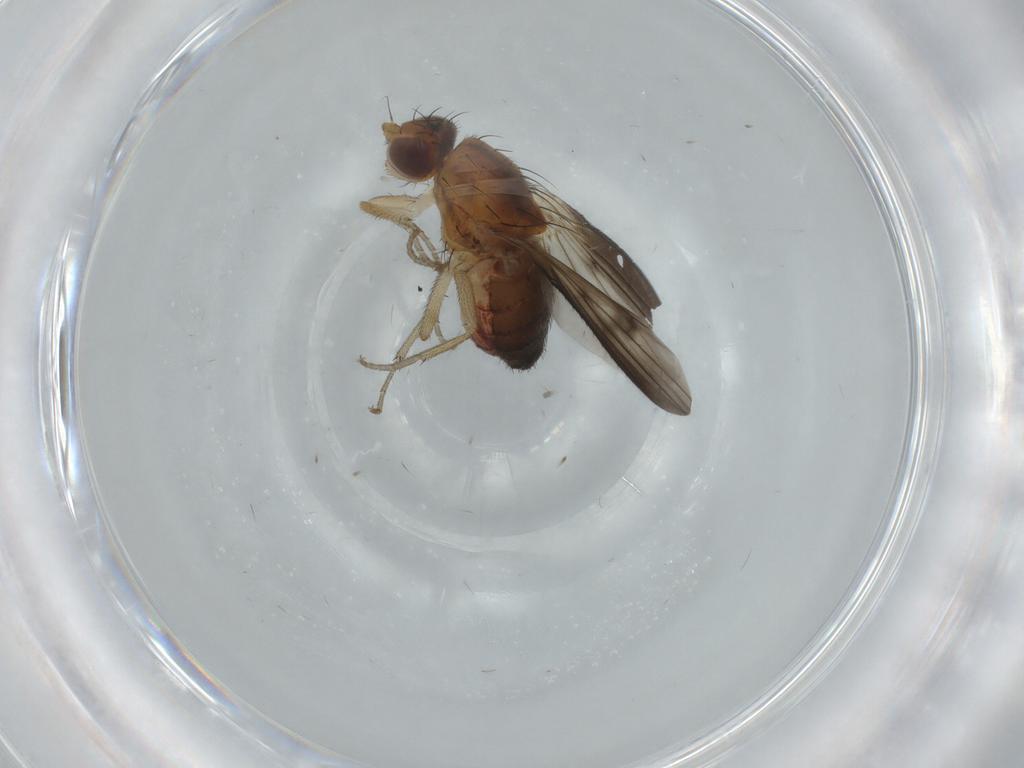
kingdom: Animalia
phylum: Arthropoda
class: Insecta
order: Diptera
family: Heleomyzidae
